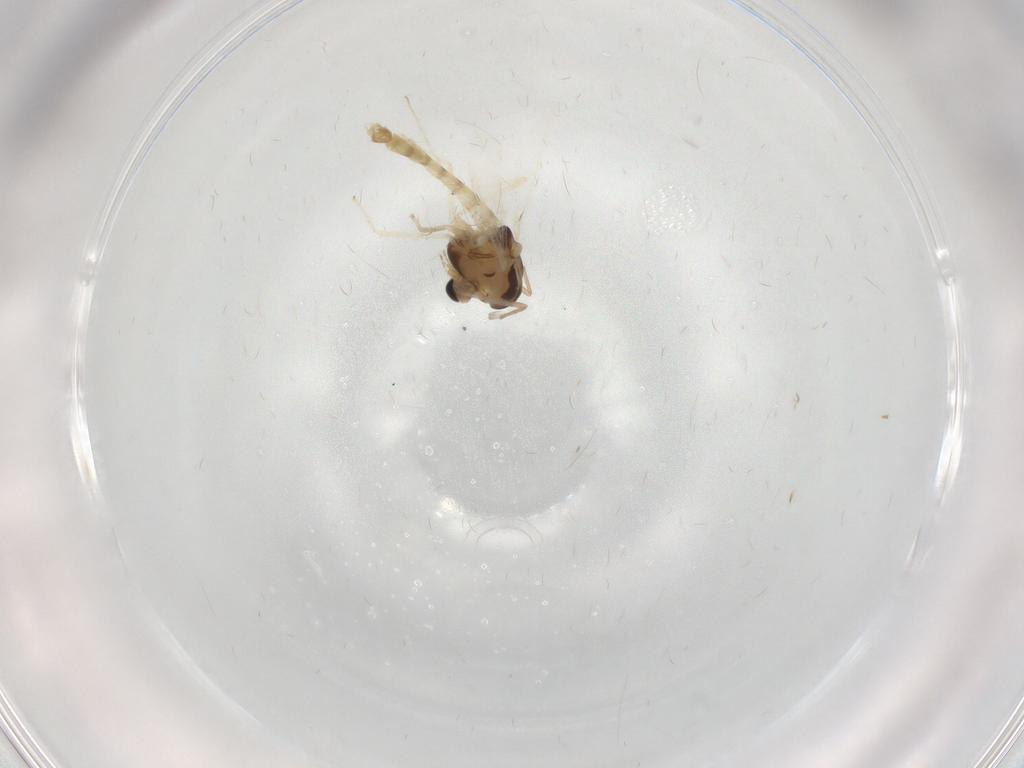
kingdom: Animalia
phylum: Arthropoda
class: Insecta
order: Diptera
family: Chironomidae
